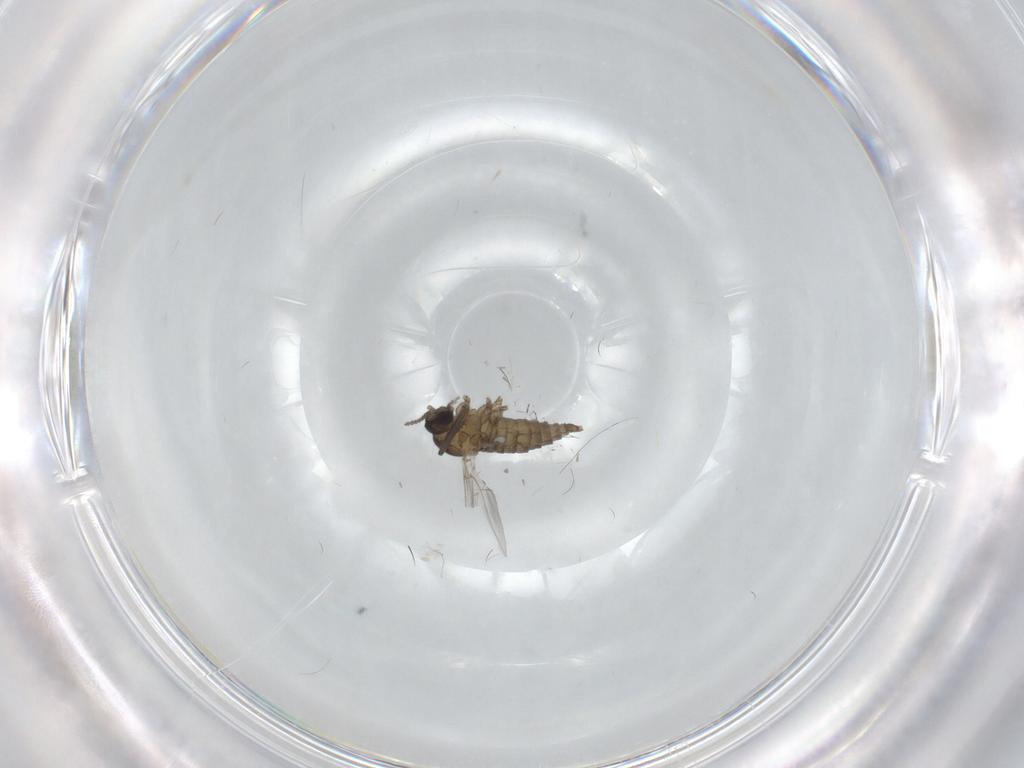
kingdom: Animalia
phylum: Arthropoda
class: Insecta
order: Diptera
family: Cecidomyiidae
